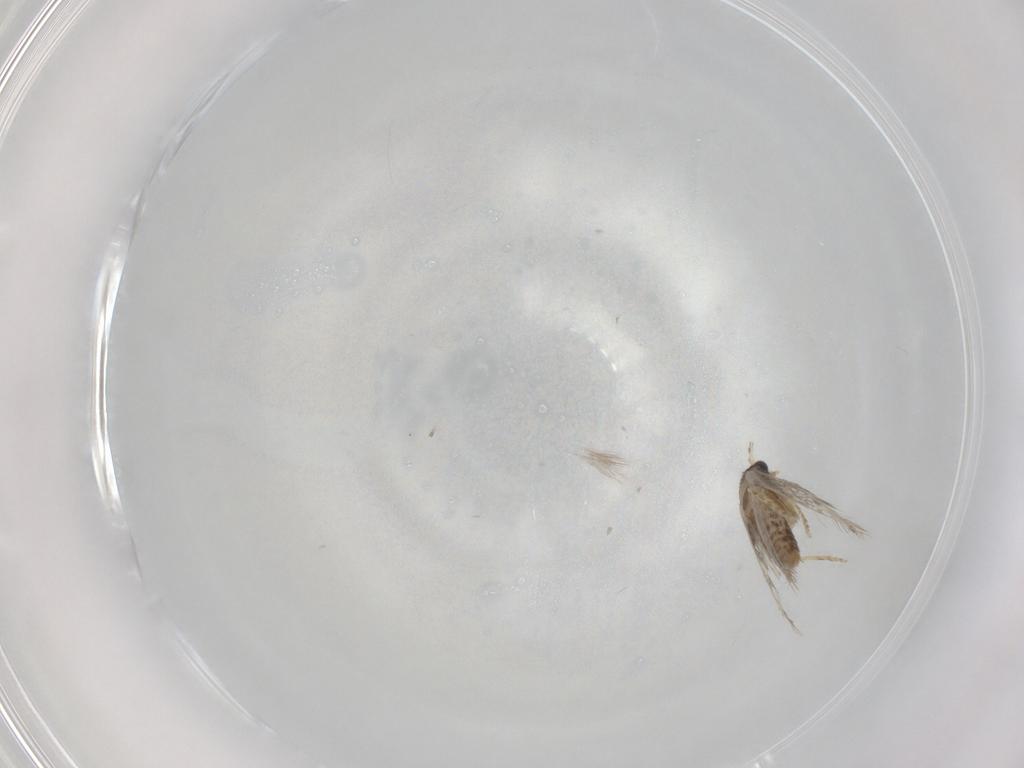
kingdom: Animalia
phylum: Arthropoda
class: Insecta
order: Lepidoptera
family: Nepticulidae
